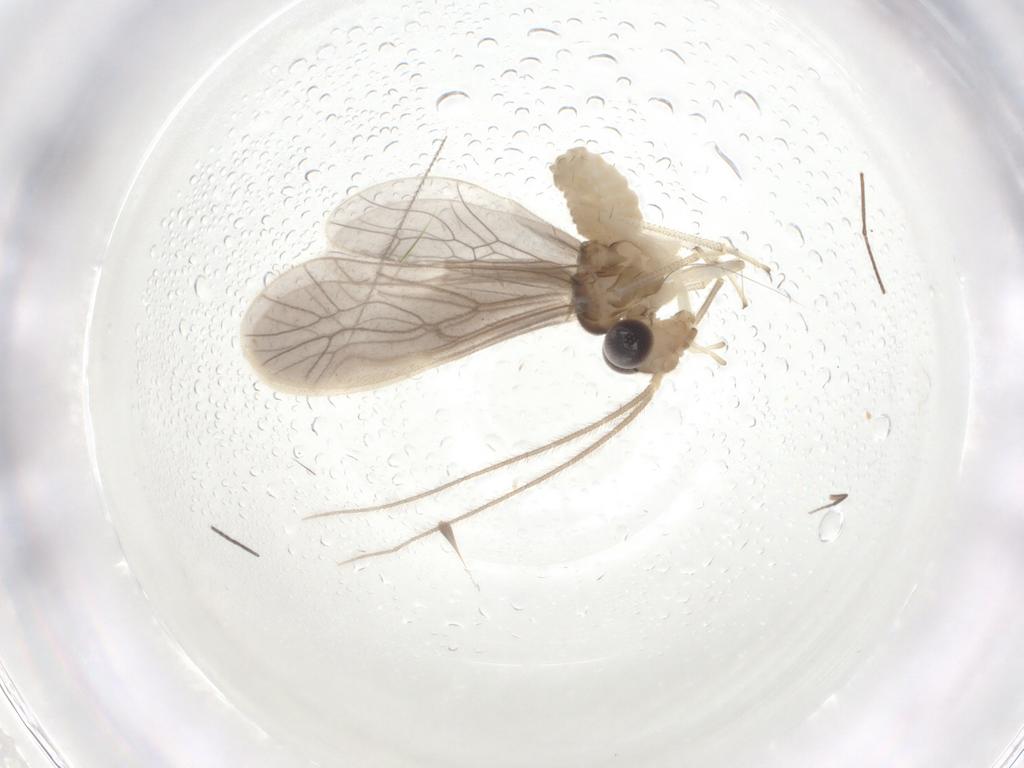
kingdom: Animalia
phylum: Arthropoda
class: Insecta
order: Psocodea
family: Caeciliusidae
